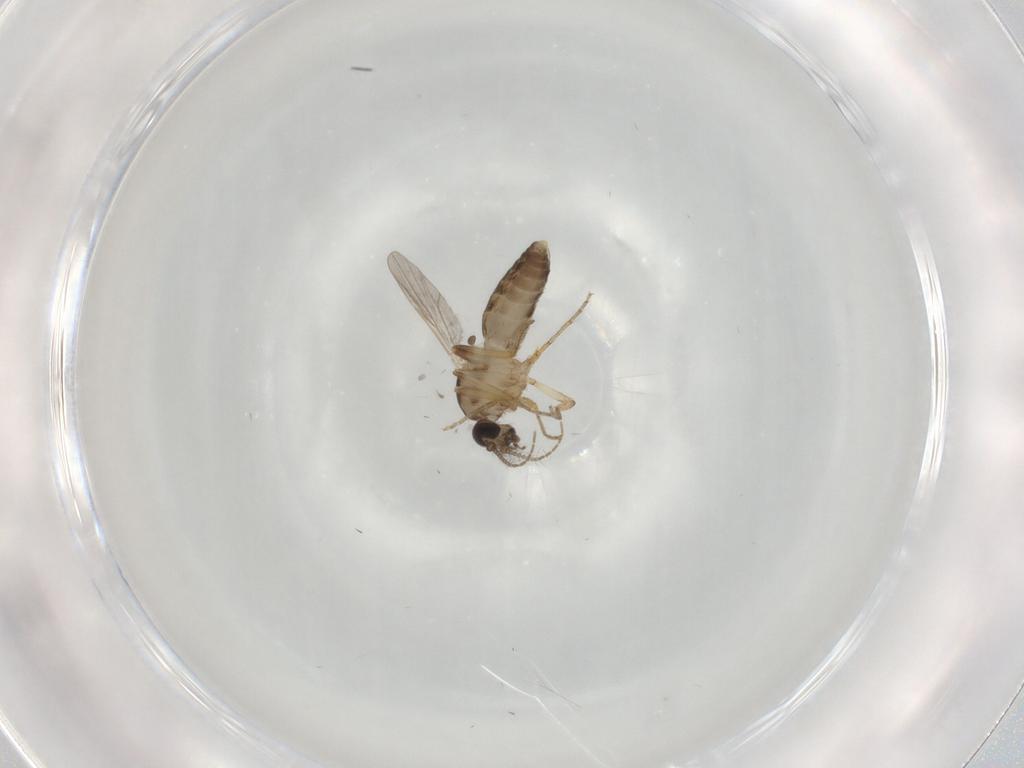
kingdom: Animalia
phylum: Arthropoda
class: Insecta
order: Diptera
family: Ceratopogonidae
